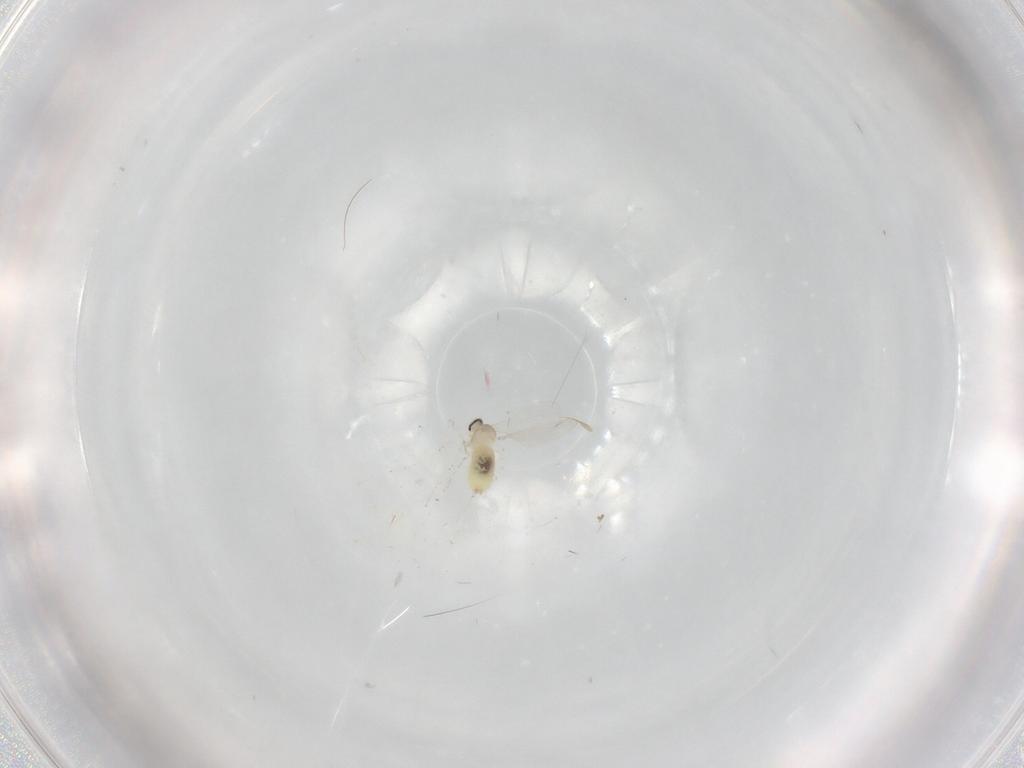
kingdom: Animalia
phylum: Arthropoda
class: Insecta
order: Diptera
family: Cecidomyiidae
